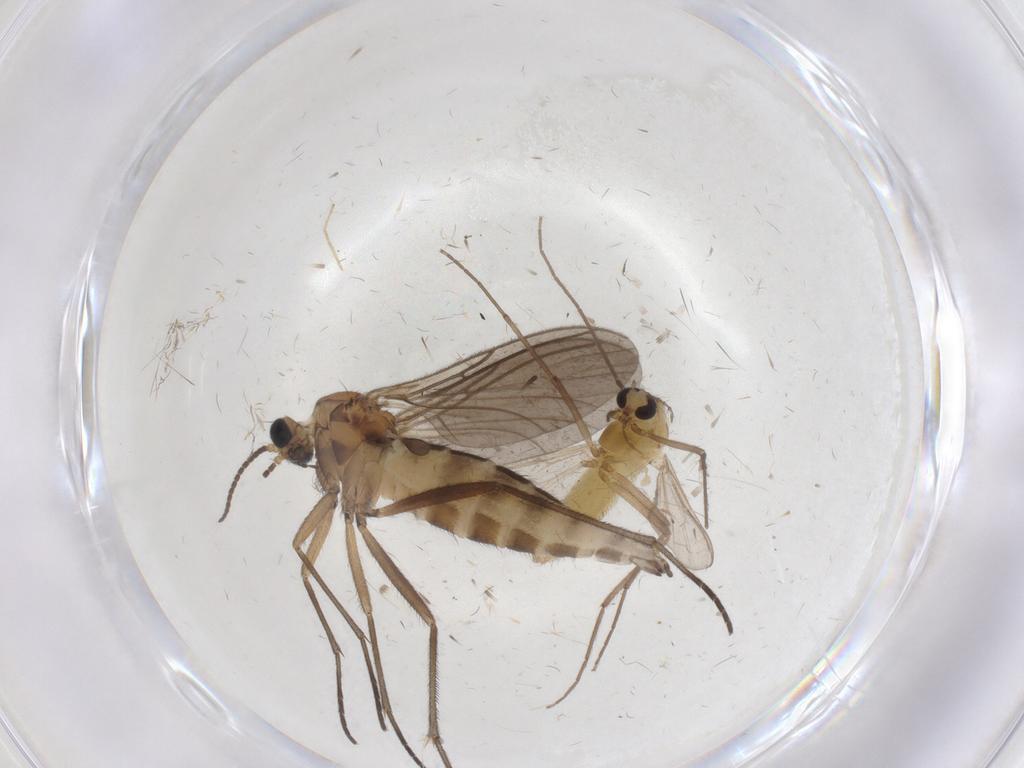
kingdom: Animalia
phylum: Arthropoda
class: Insecta
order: Diptera
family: Chironomidae
